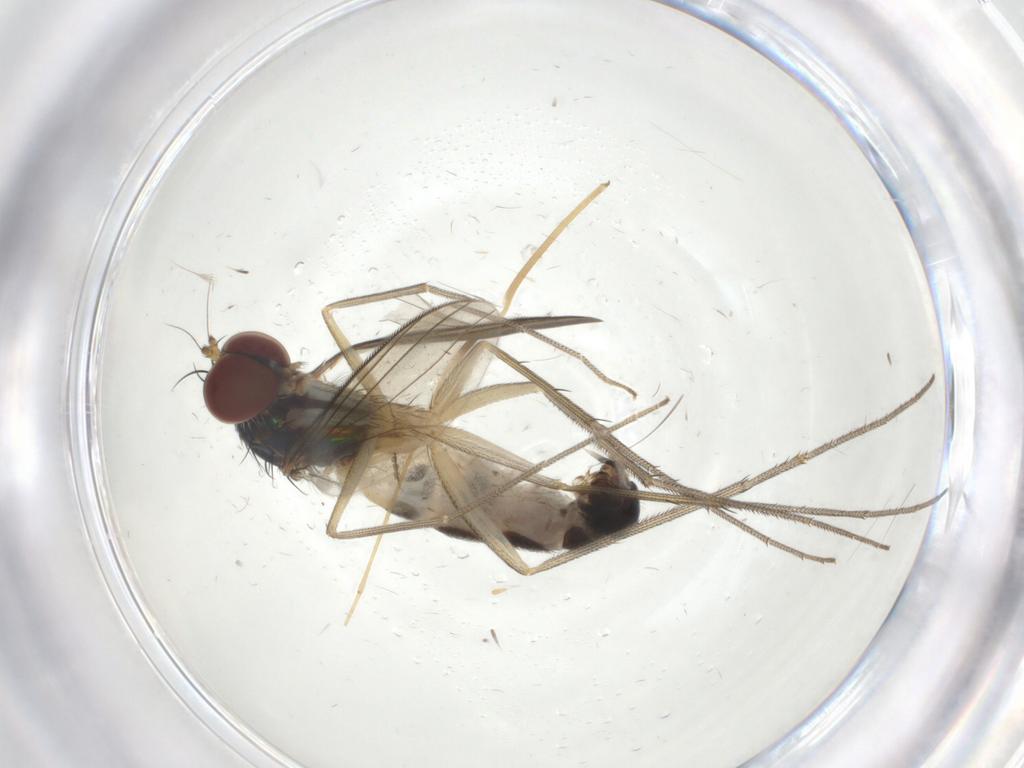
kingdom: Animalia
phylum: Arthropoda
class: Insecta
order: Diptera
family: Limoniidae
